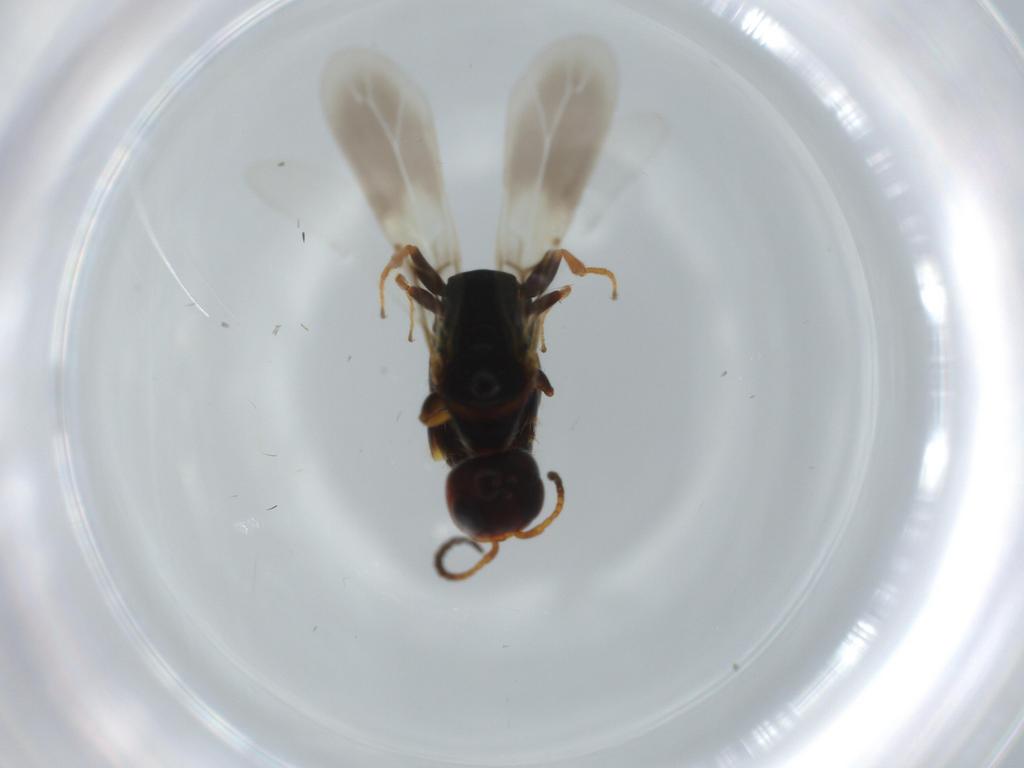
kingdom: Animalia
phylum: Arthropoda
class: Insecta
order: Hymenoptera
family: Bethylidae
